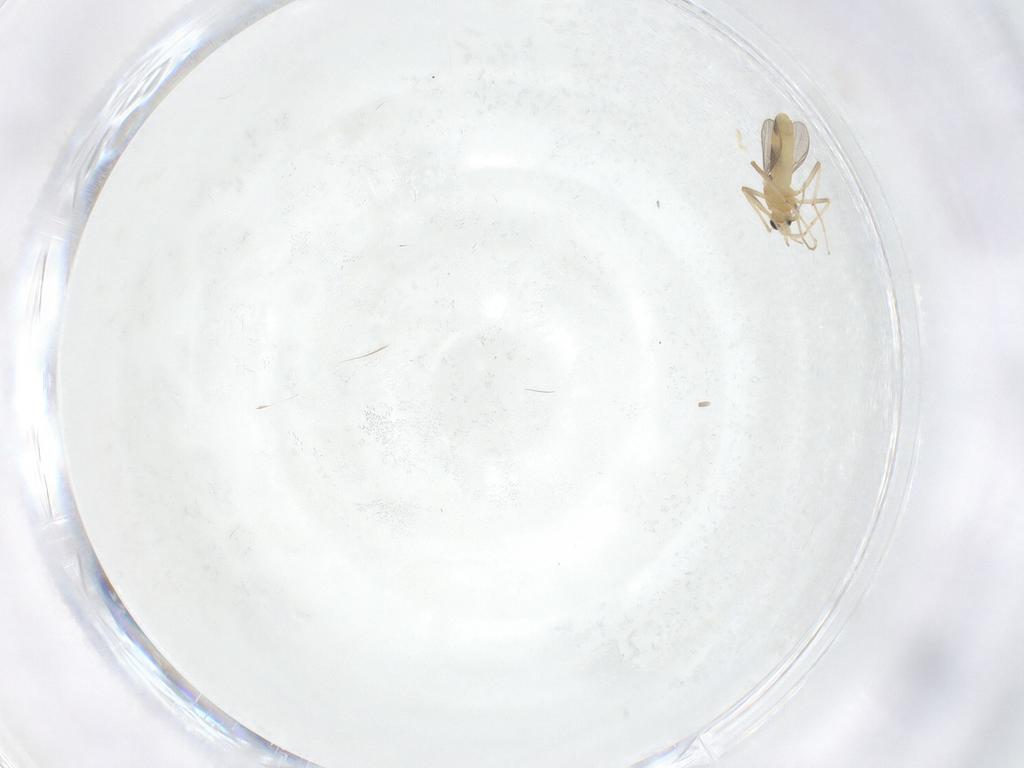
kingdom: Animalia
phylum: Arthropoda
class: Insecta
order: Diptera
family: Chironomidae
